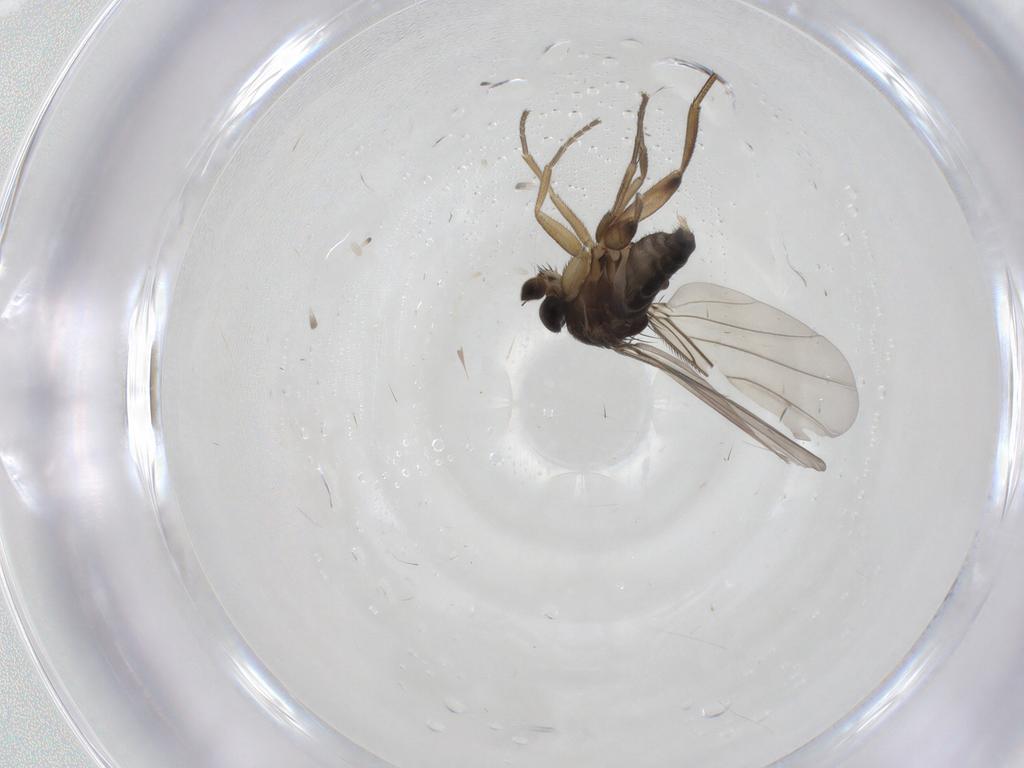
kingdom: Animalia
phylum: Arthropoda
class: Insecta
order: Diptera
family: Phoridae
